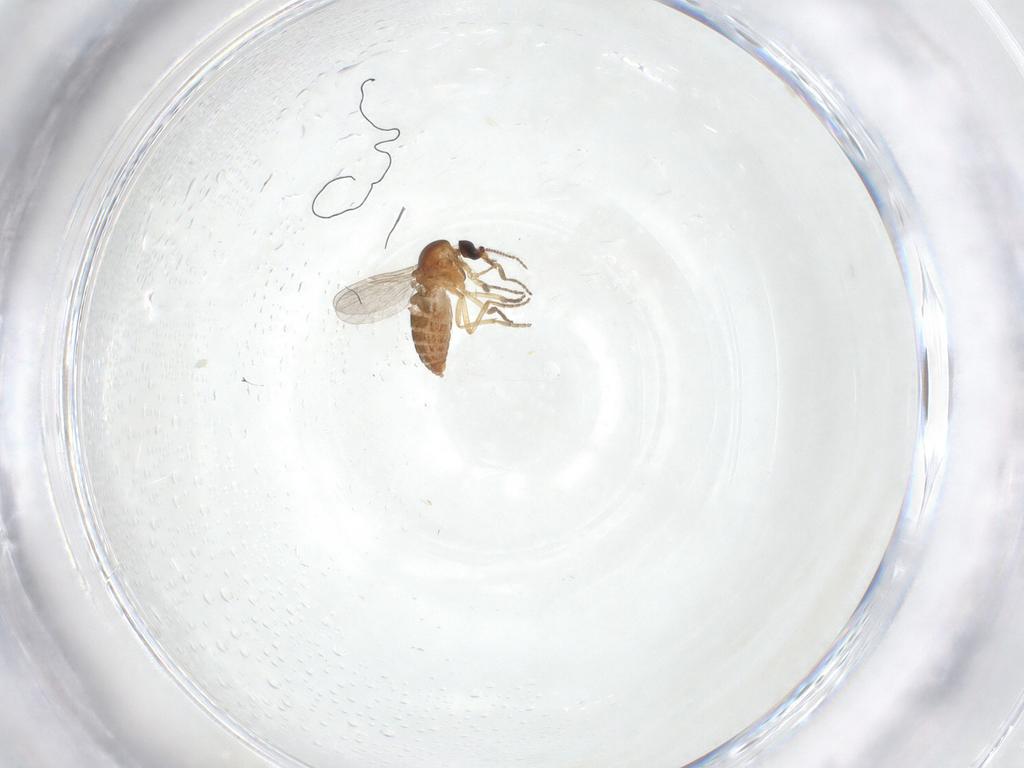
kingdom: Animalia
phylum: Arthropoda
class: Insecta
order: Diptera
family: Ceratopogonidae
